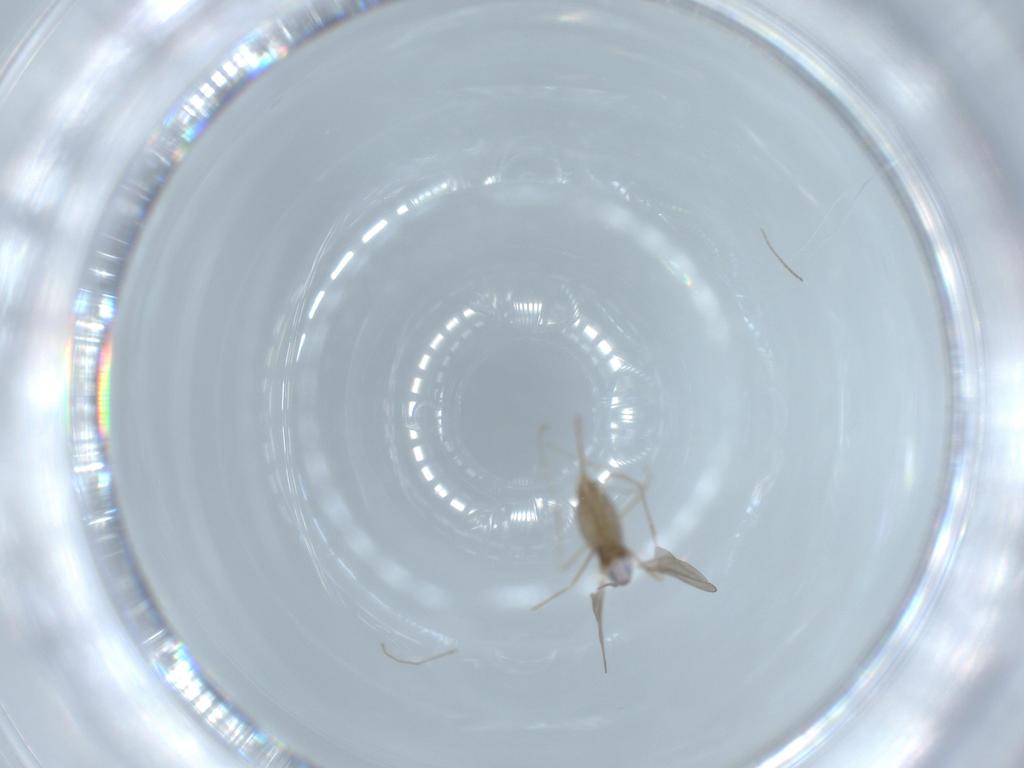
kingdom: Animalia
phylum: Arthropoda
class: Insecta
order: Diptera
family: Cecidomyiidae
